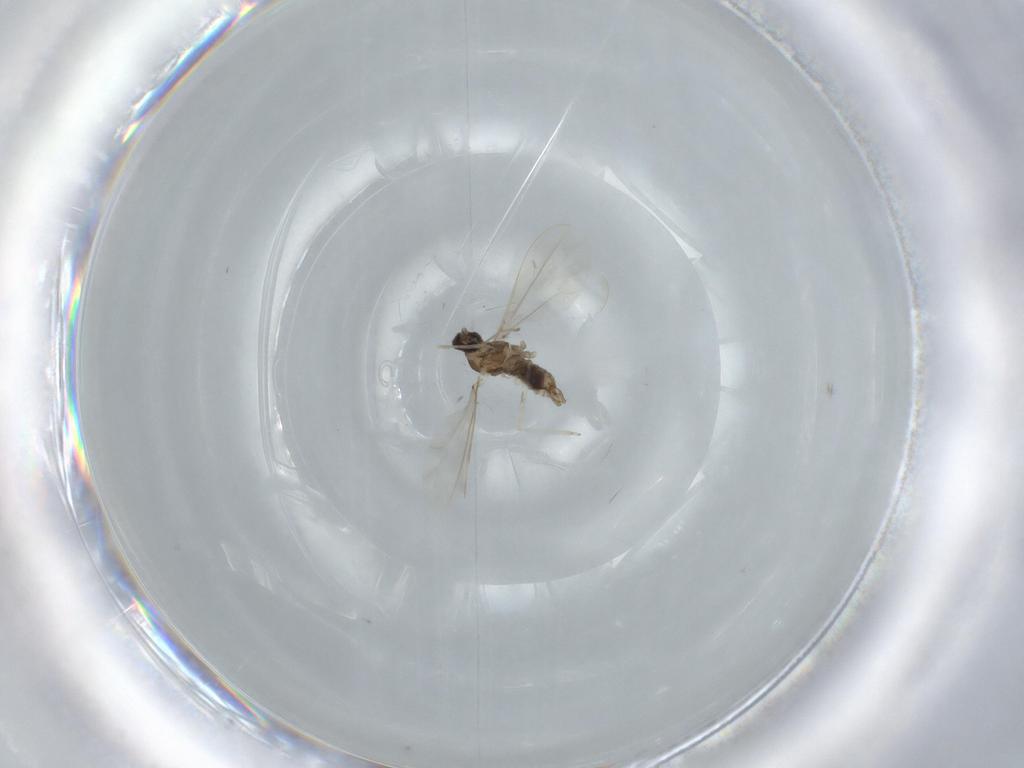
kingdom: Animalia
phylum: Arthropoda
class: Insecta
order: Diptera
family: Cecidomyiidae
